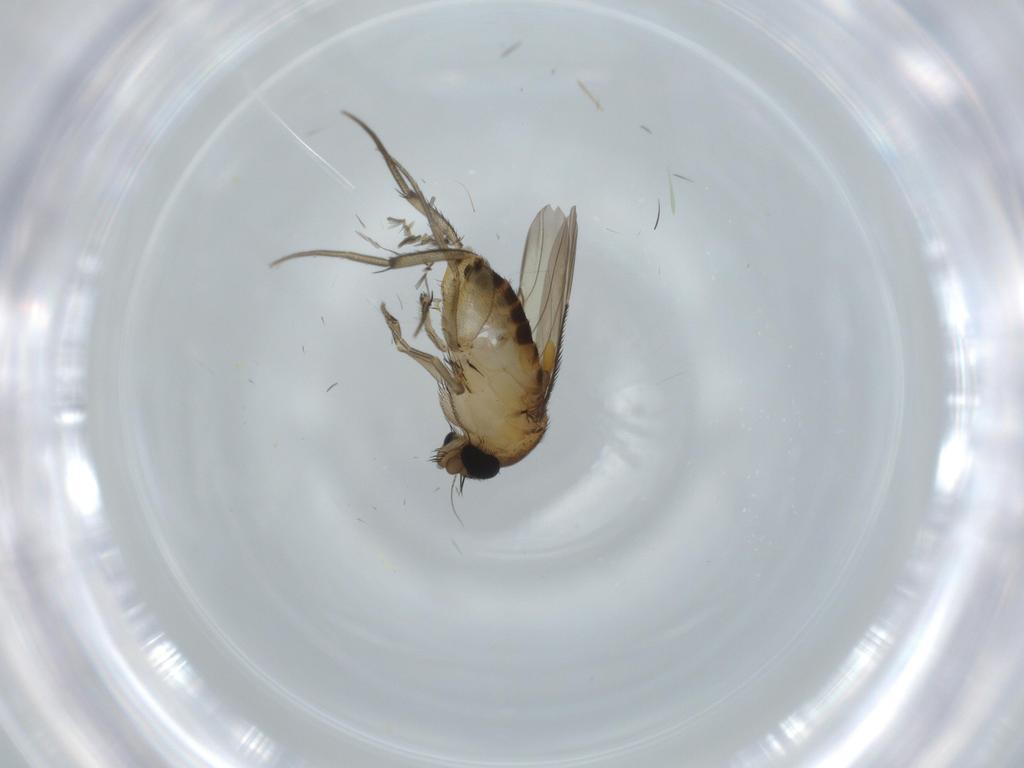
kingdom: Animalia
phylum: Arthropoda
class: Insecta
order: Diptera
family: Phoridae
